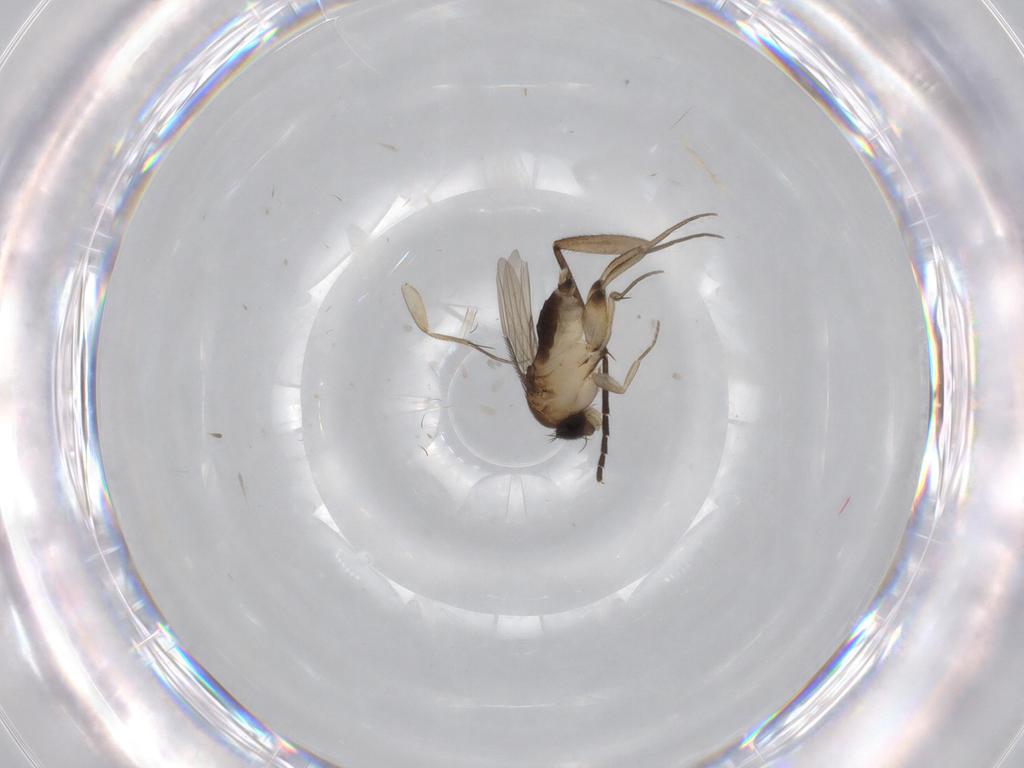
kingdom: Animalia
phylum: Arthropoda
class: Insecta
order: Diptera
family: Phoridae
